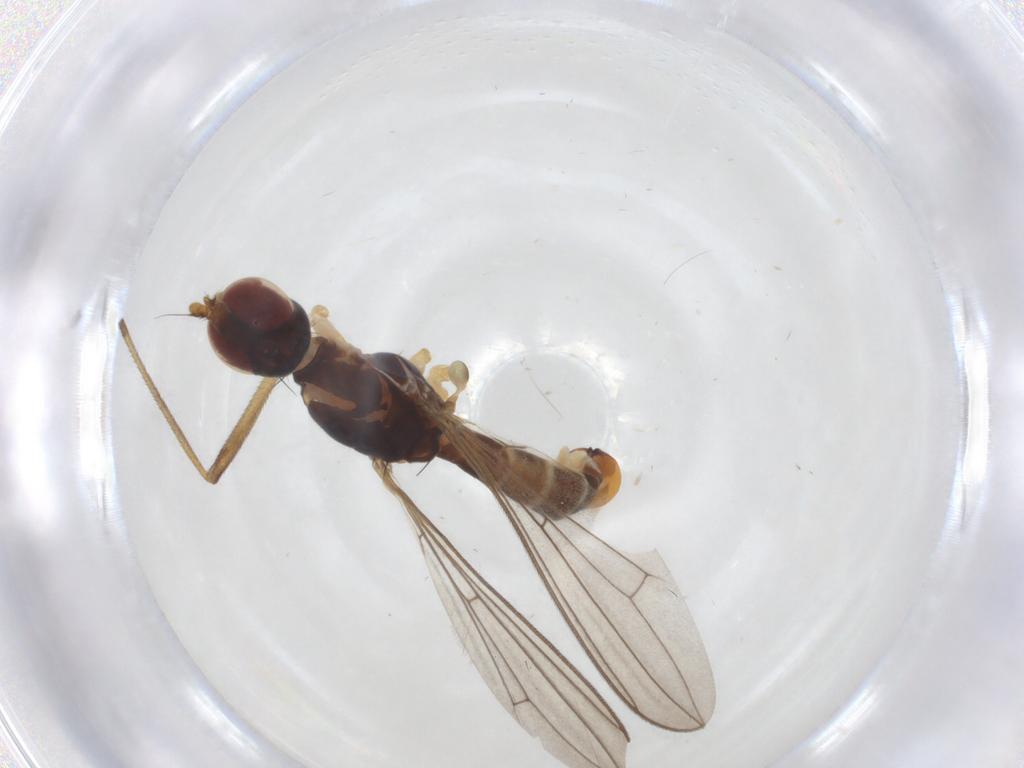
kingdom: Animalia
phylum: Arthropoda
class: Insecta
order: Diptera
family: Micropezidae
